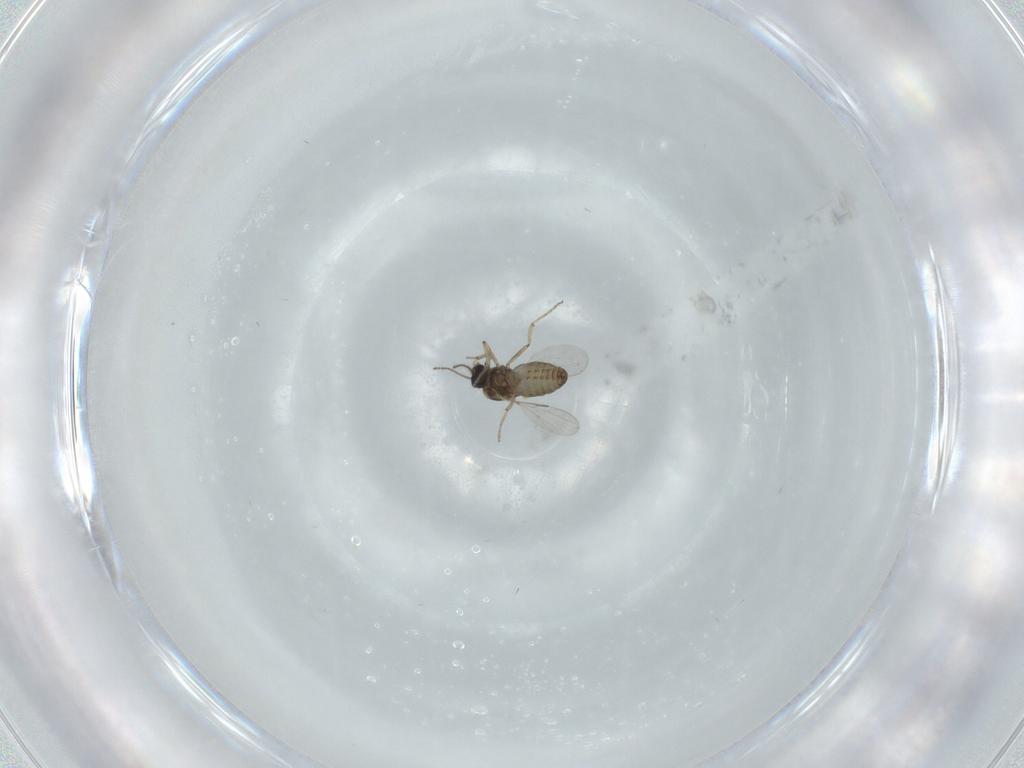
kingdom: Animalia
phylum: Arthropoda
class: Insecta
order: Diptera
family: Ceratopogonidae
